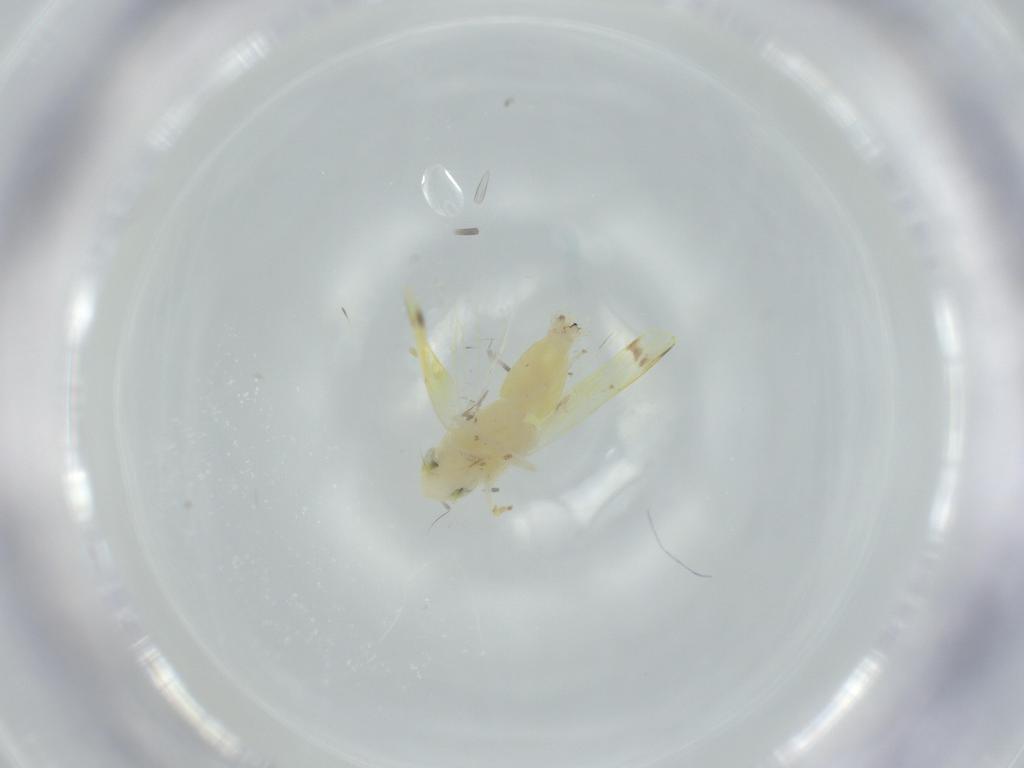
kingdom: Animalia
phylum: Arthropoda
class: Insecta
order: Hemiptera
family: Cicadellidae
